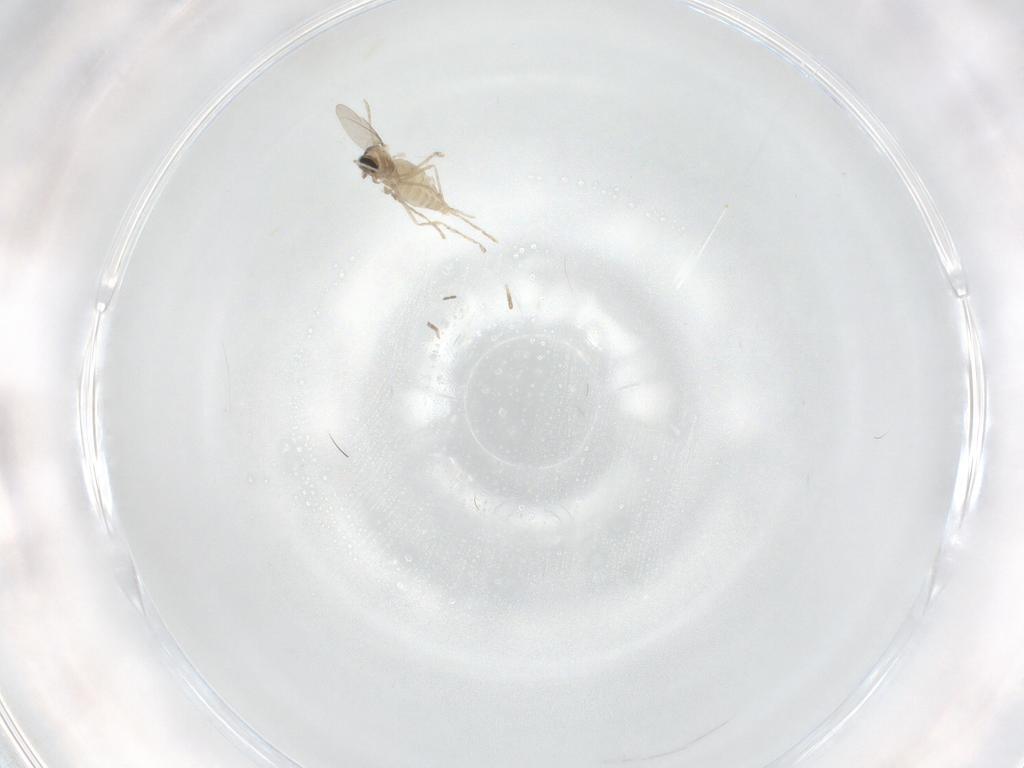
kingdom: Animalia
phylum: Arthropoda
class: Insecta
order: Diptera
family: Cecidomyiidae
